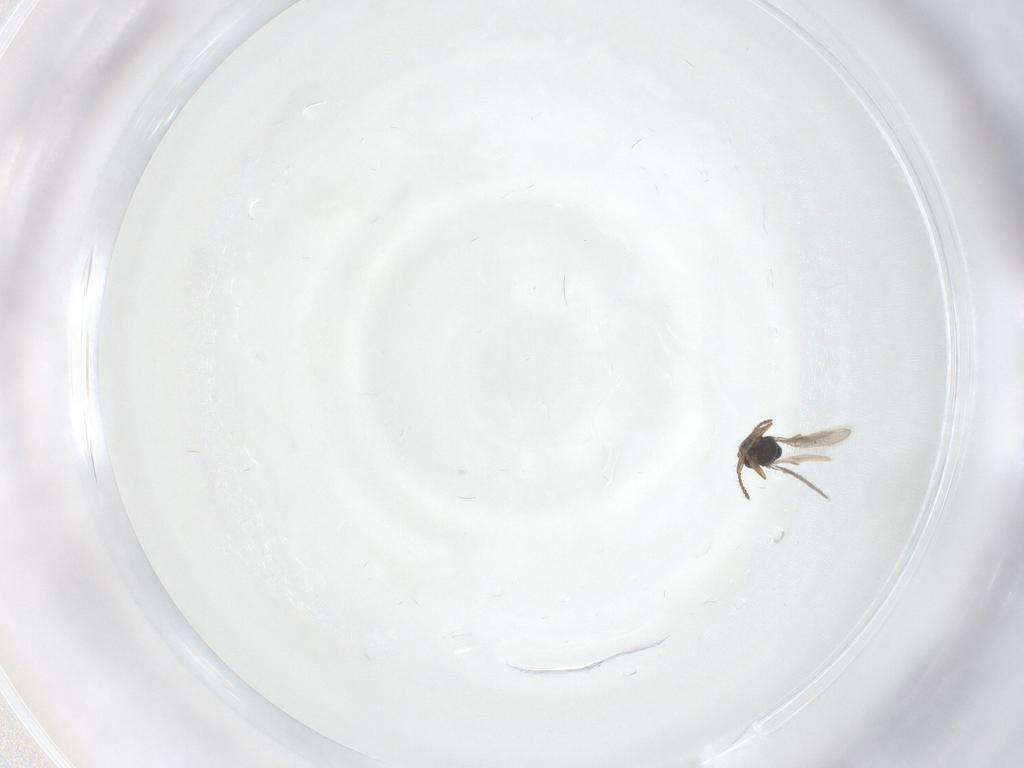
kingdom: Animalia
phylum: Arthropoda
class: Insecta
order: Hymenoptera
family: Scelionidae
